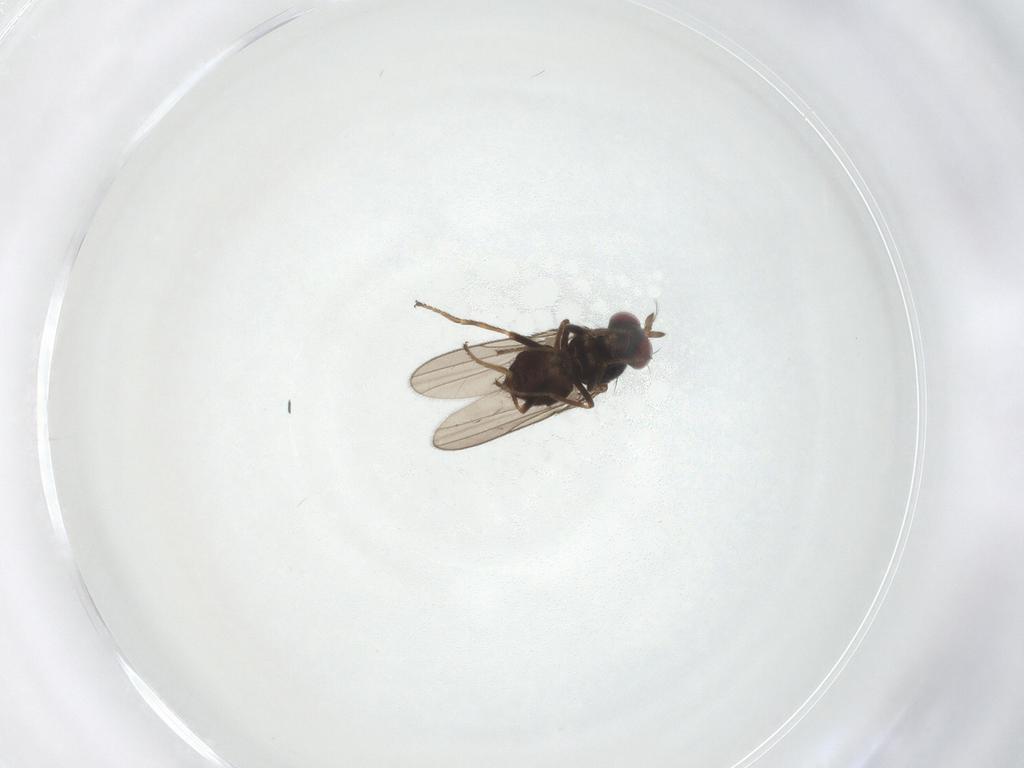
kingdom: Animalia
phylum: Arthropoda
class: Insecta
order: Diptera
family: Ephydridae
